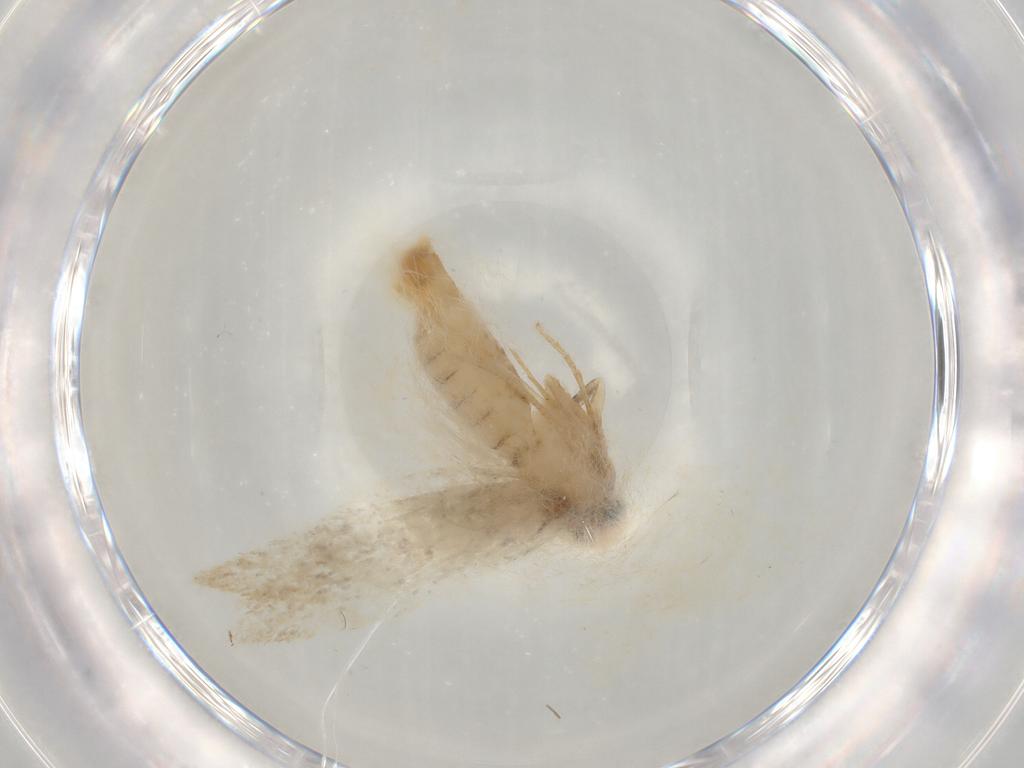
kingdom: Animalia
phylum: Arthropoda
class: Insecta
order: Lepidoptera
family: Cosmopterigidae
